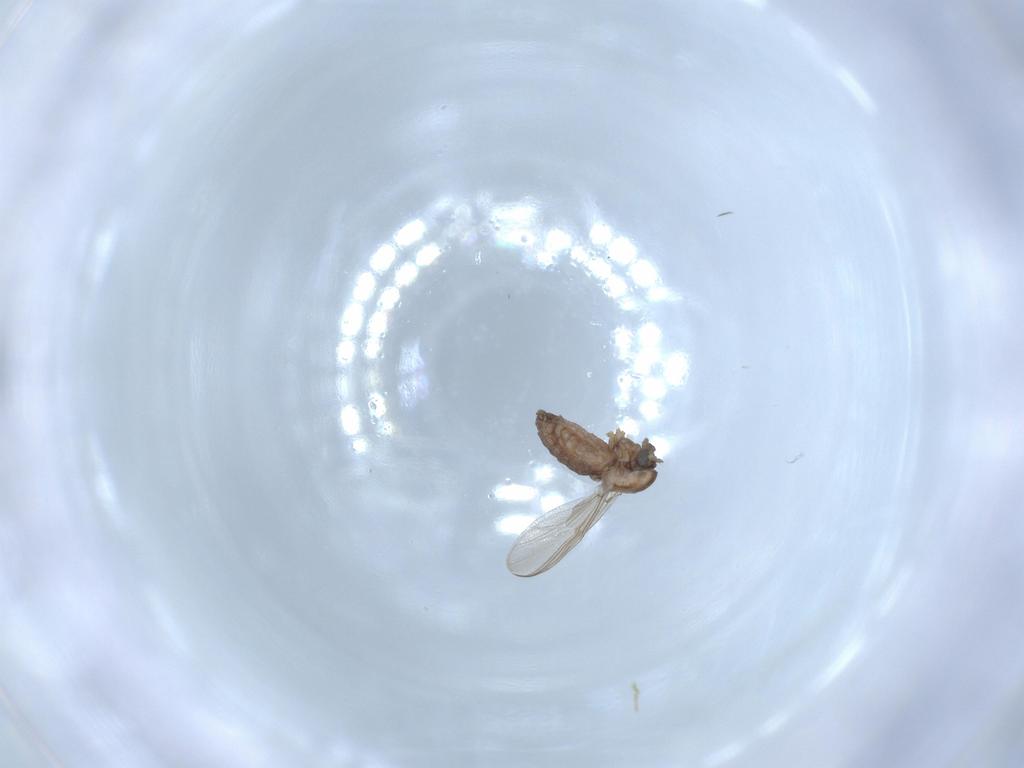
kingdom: Animalia
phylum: Arthropoda
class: Insecta
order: Diptera
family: Chironomidae
